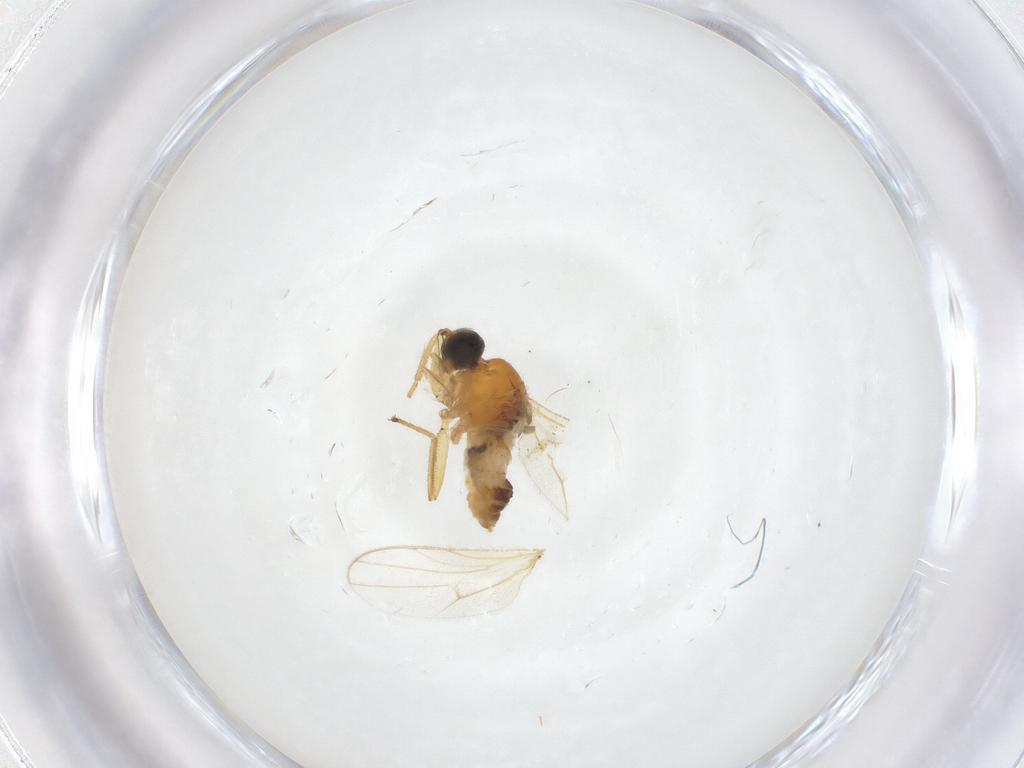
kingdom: Animalia
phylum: Arthropoda
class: Insecta
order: Diptera
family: Hybotidae
